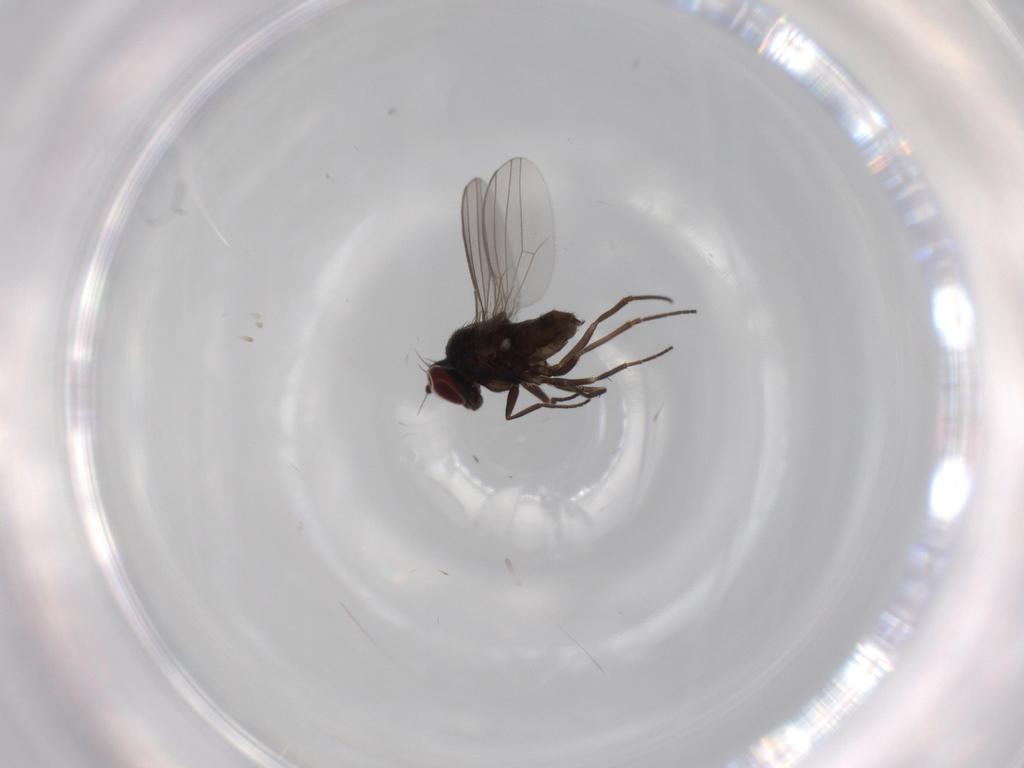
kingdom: Animalia
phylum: Arthropoda
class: Insecta
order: Diptera
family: Dolichopodidae
